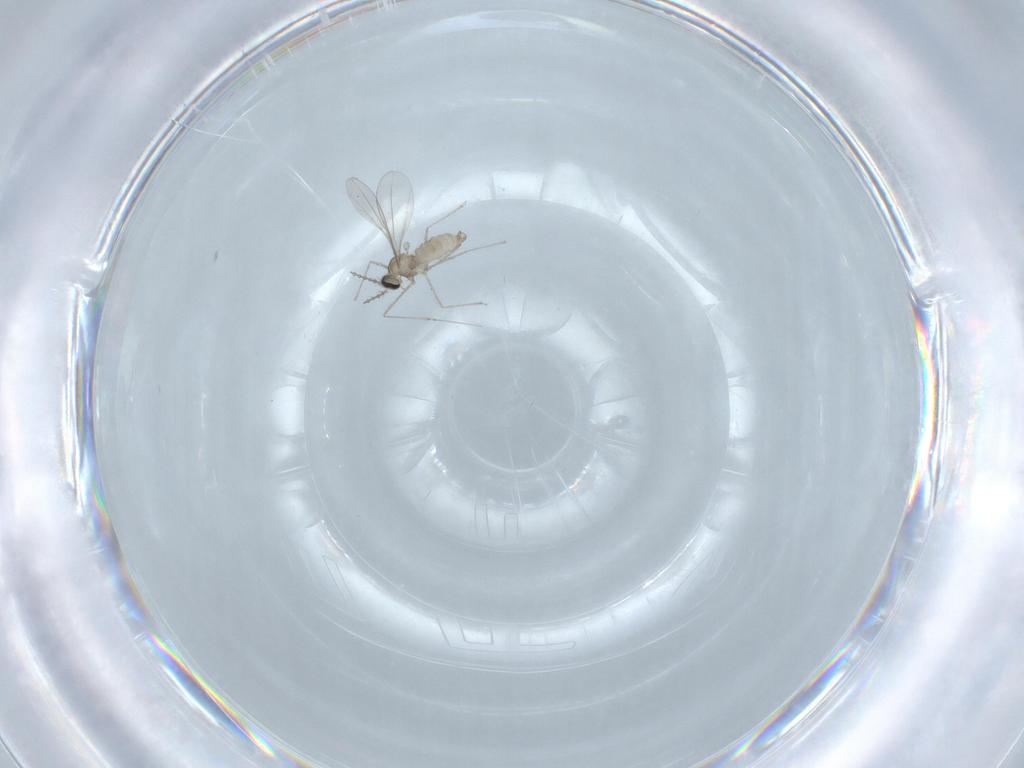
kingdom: Animalia
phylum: Arthropoda
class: Insecta
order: Diptera
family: Cecidomyiidae
